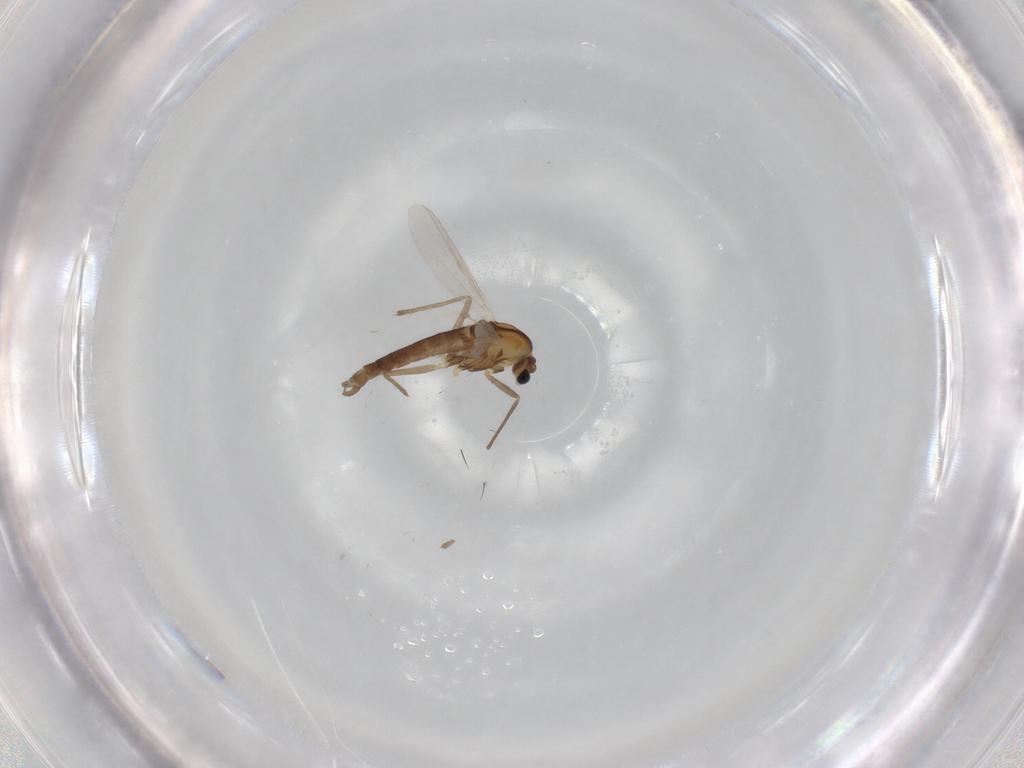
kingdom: Animalia
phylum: Arthropoda
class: Insecta
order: Diptera
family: Chironomidae
